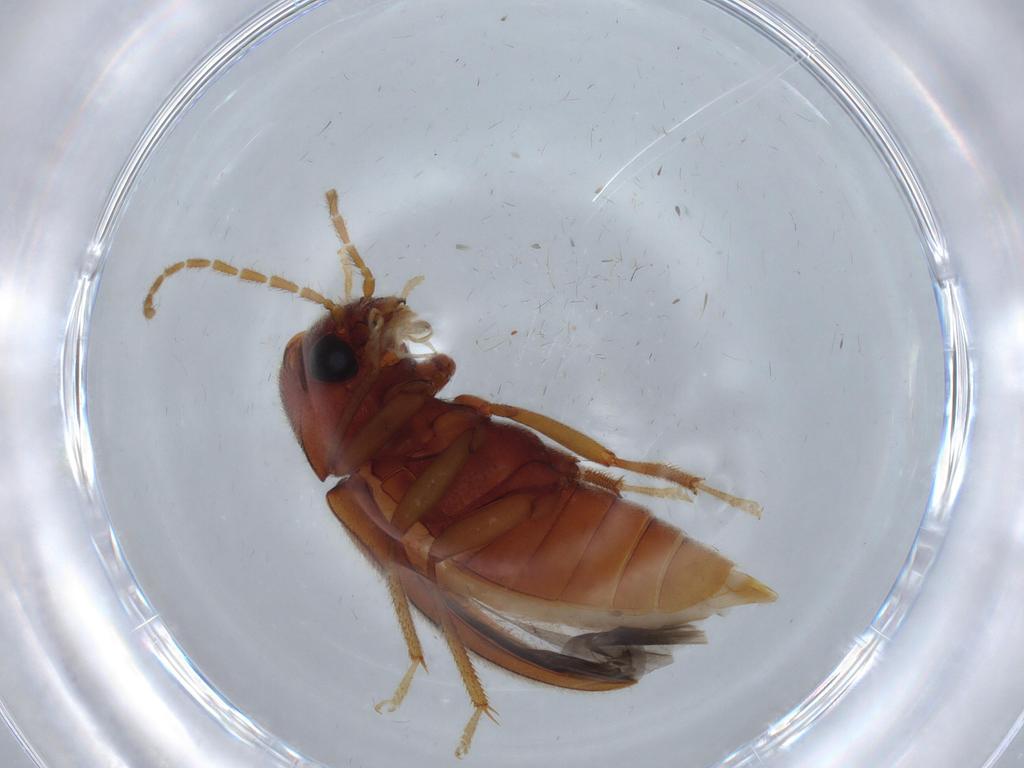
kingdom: Animalia
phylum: Arthropoda
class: Insecta
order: Coleoptera
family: Ptilodactylidae
